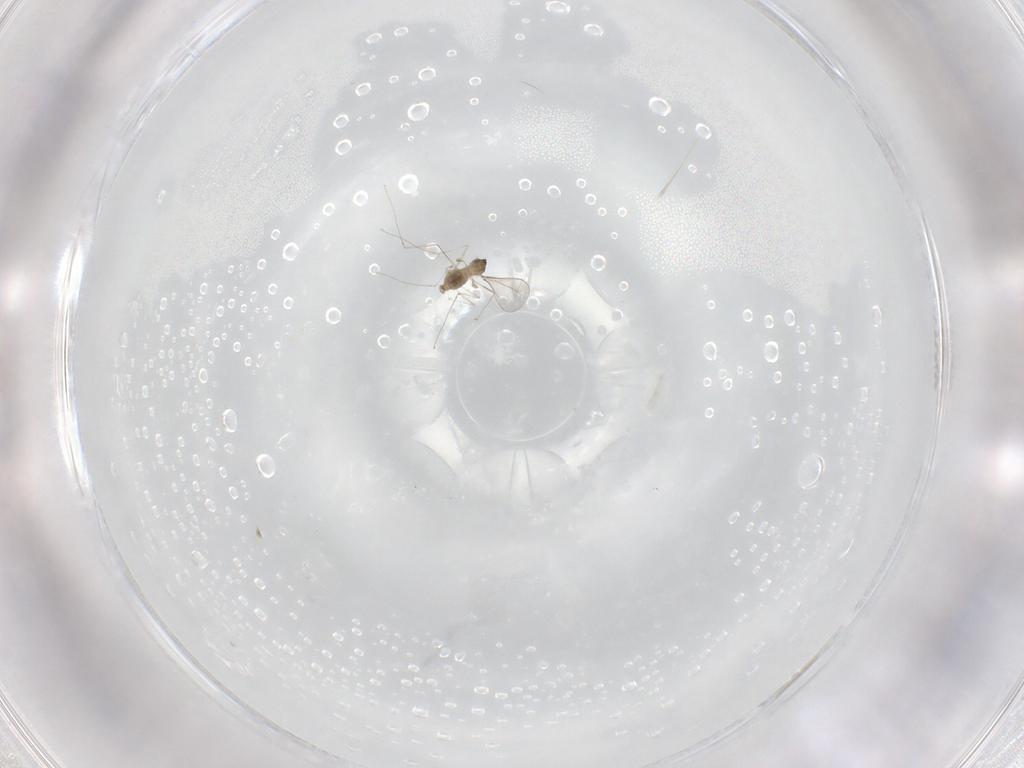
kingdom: Animalia
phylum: Arthropoda
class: Insecta
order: Diptera
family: Cecidomyiidae
